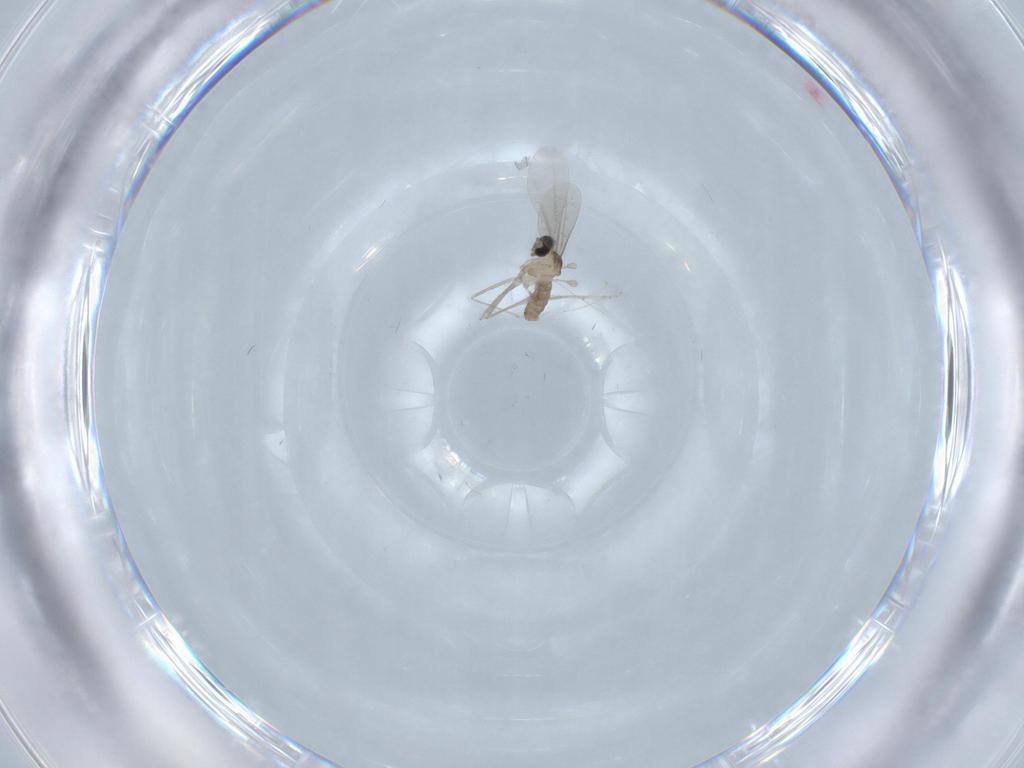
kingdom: Animalia
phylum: Arthropoda
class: Insecta
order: Diptera
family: Cecidomyiidae
